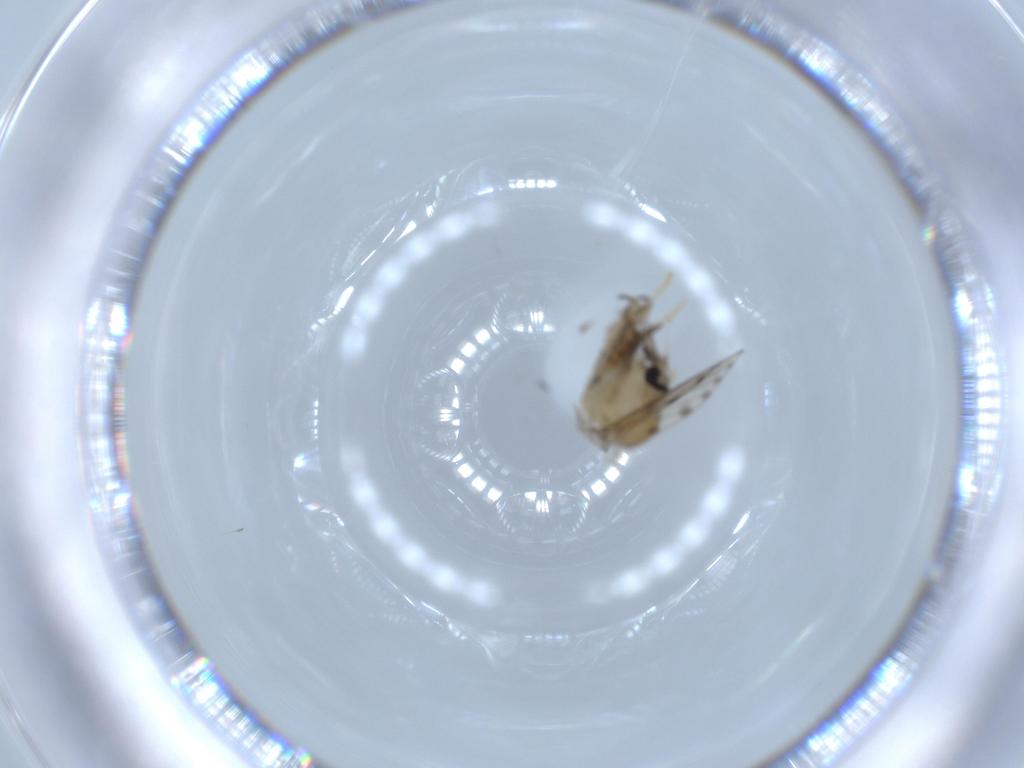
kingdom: Animalia
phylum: Arthropoda
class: Insecta
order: Diptera
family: Psychodidae
